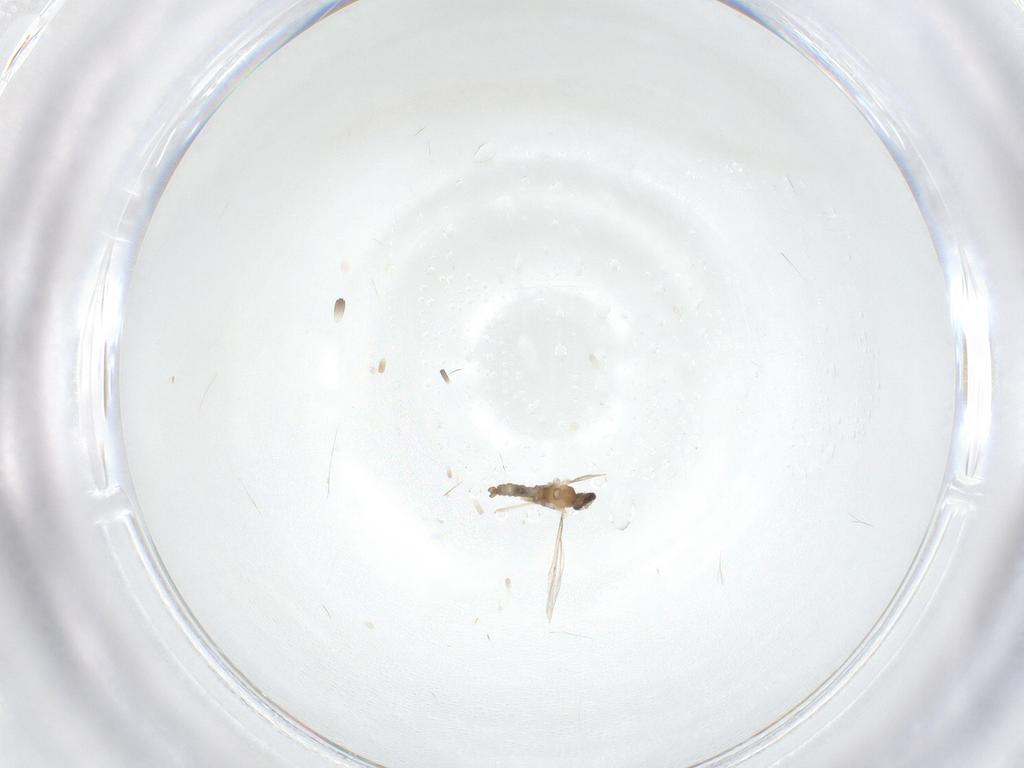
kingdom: Animalia
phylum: Arthropoda
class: Insecta
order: Diptera
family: Cecidomyiidae
